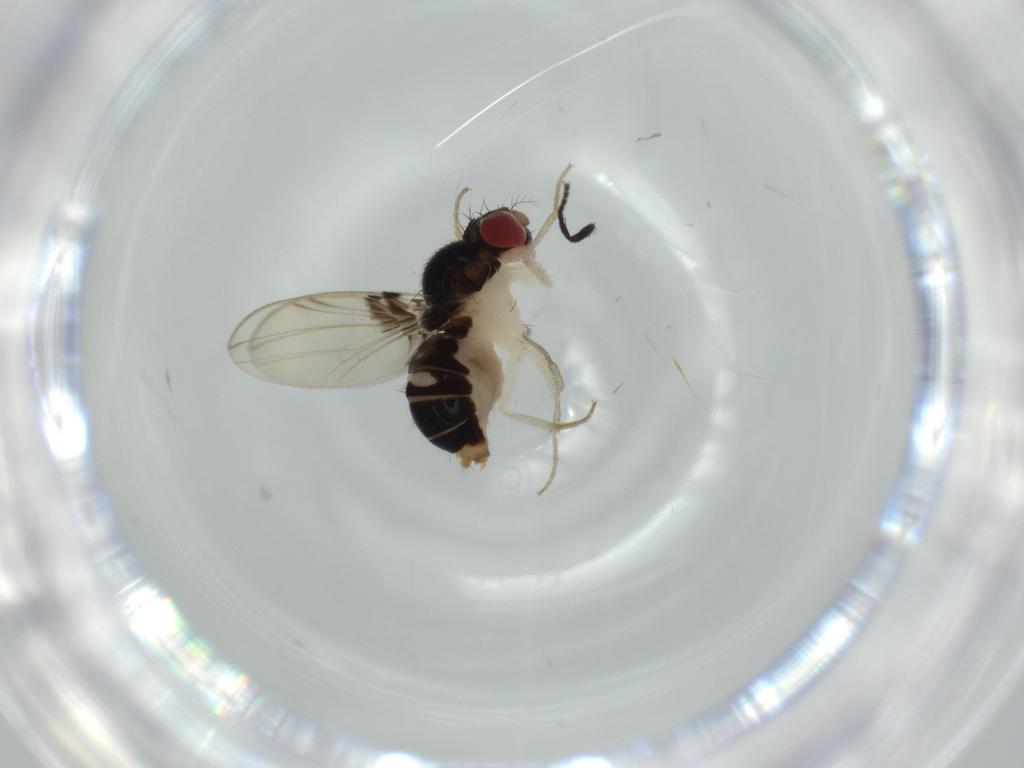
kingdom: Animalia
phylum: Arthropoda
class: Insecta
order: Diptera
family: Drosophilidae
